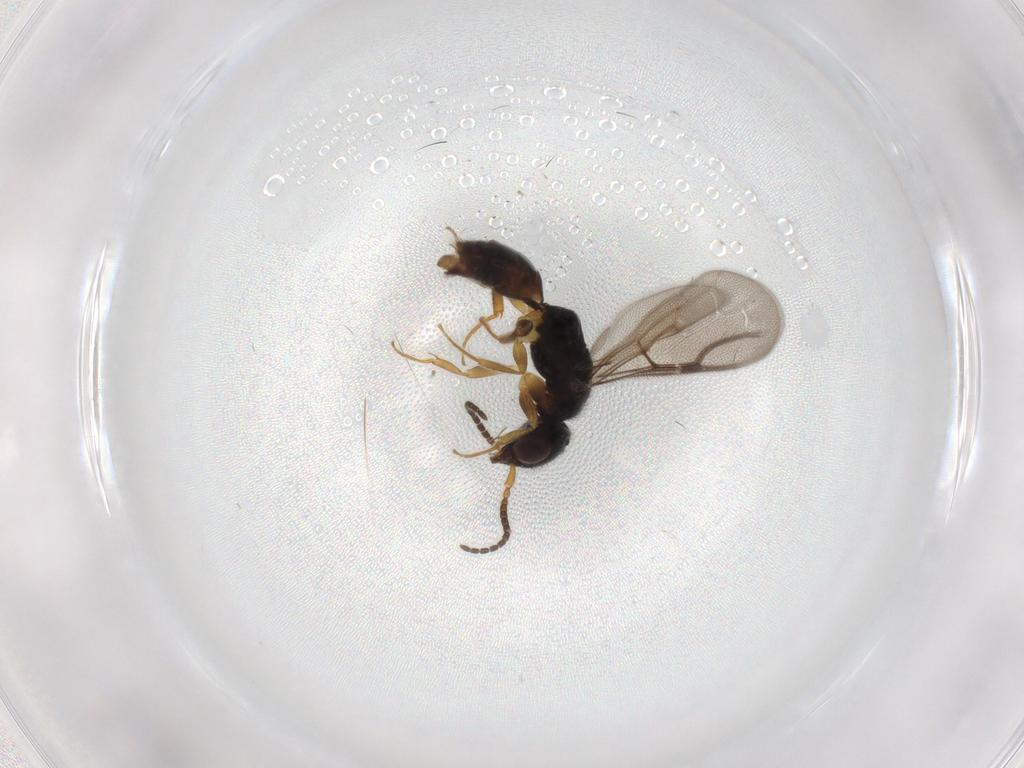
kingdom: Animalia
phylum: Arthropoda
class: Insecta
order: Hymenoptera
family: Bethylidae
